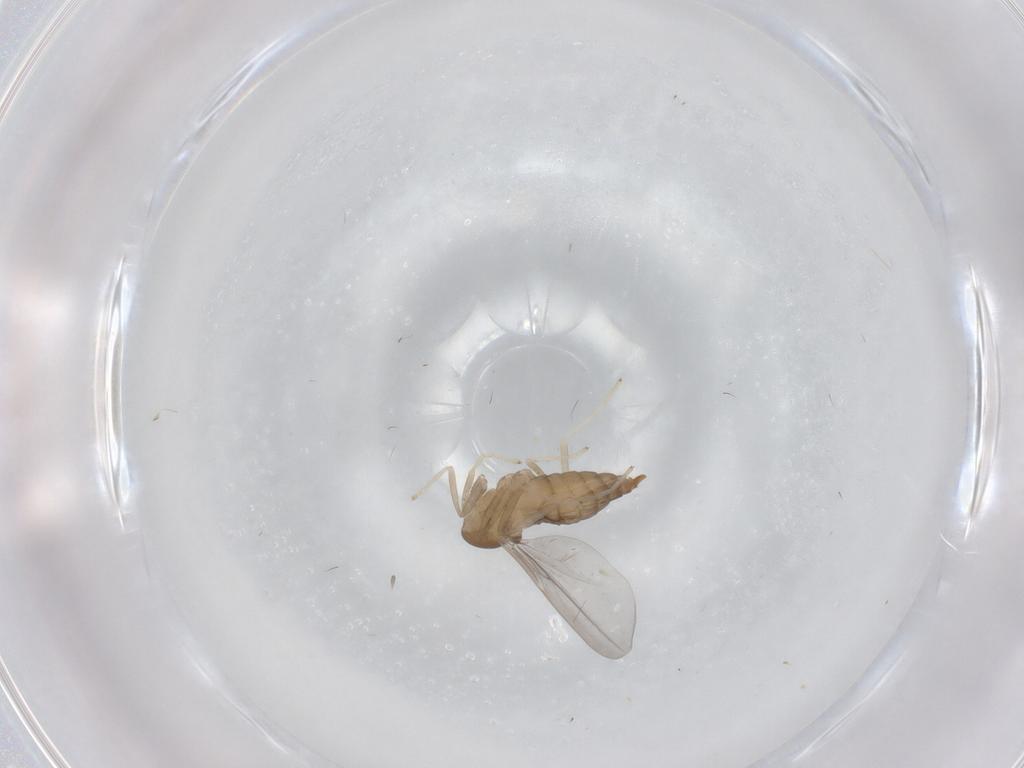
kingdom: Animalia
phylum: Arthropoda
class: Insecta
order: Diptera
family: Cecidomyiidae
